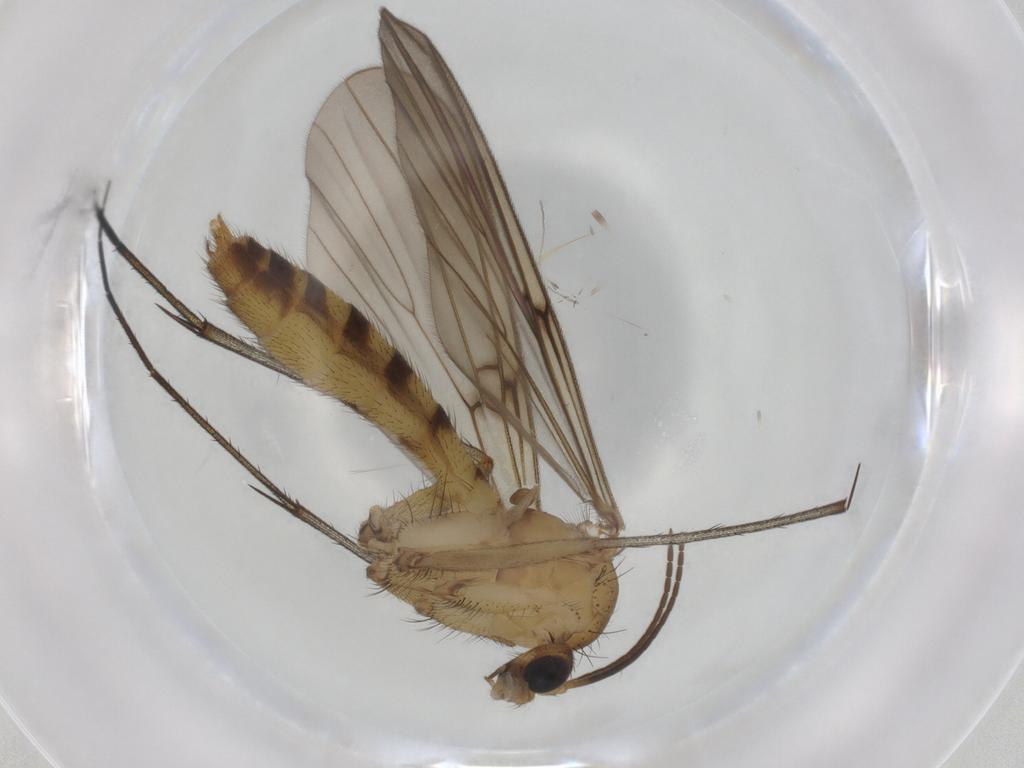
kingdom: Animalia
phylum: Arthropoda
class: Insecta
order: Diptera
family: Mycetophilidae
